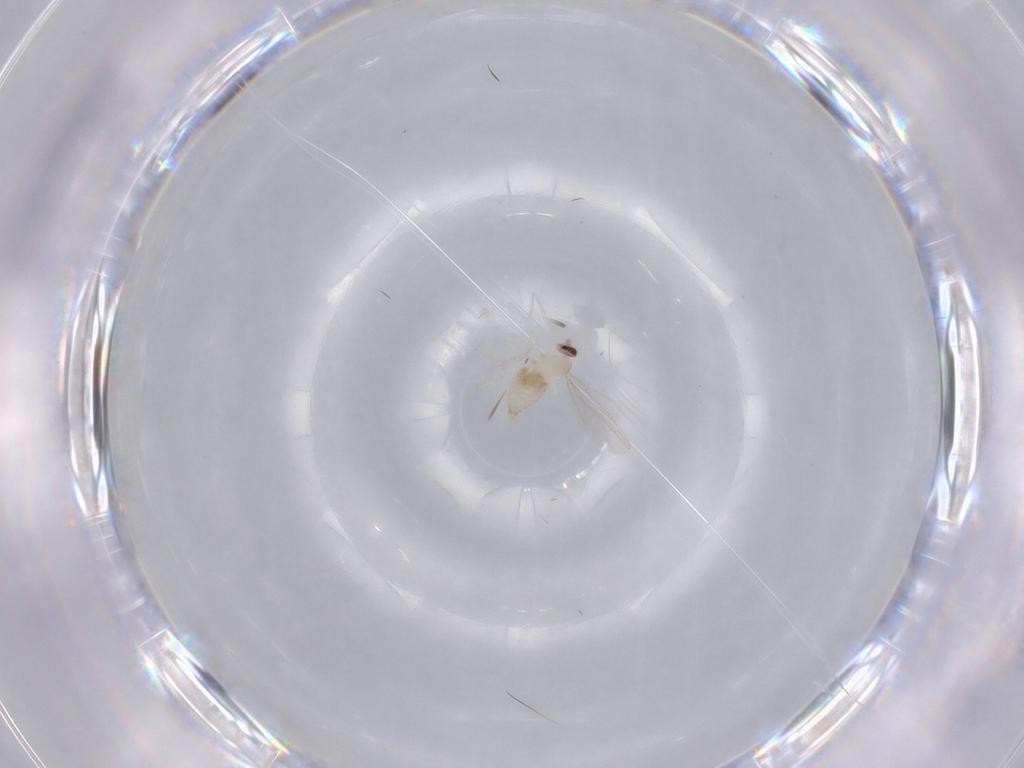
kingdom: Animalia
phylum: Arthropoda
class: Insecta
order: Diptera
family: Cecidomyiidae
